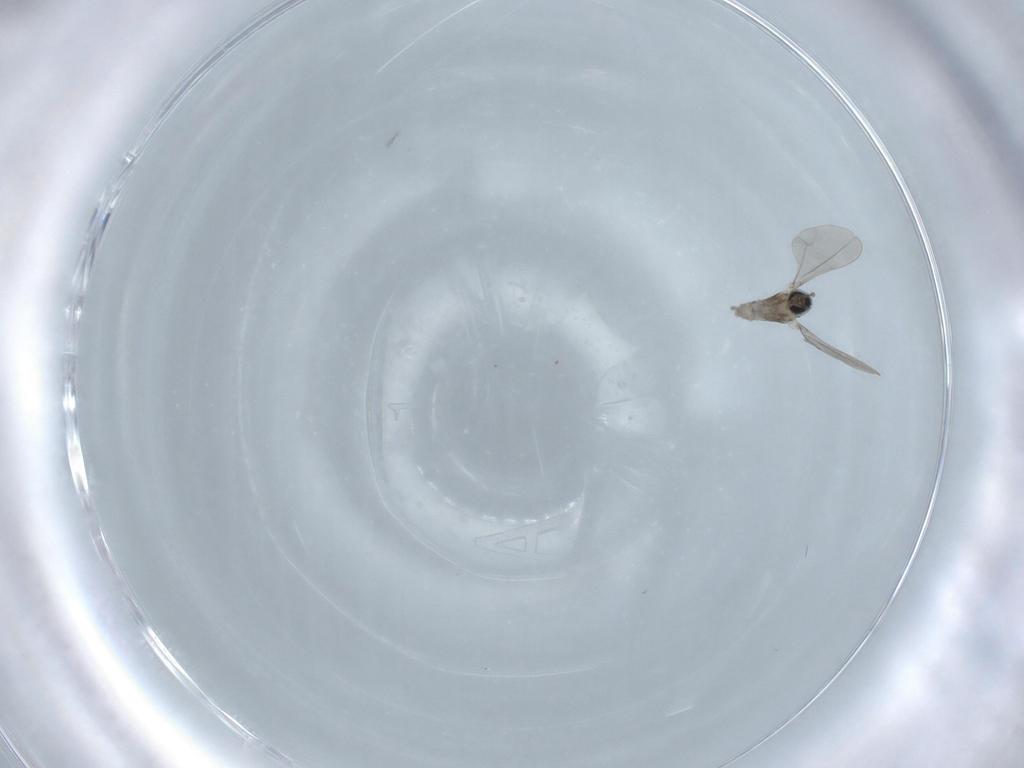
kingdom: Animalia
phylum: Arthropoda
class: Insecta
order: Diptera
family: Cecidomyiidae
